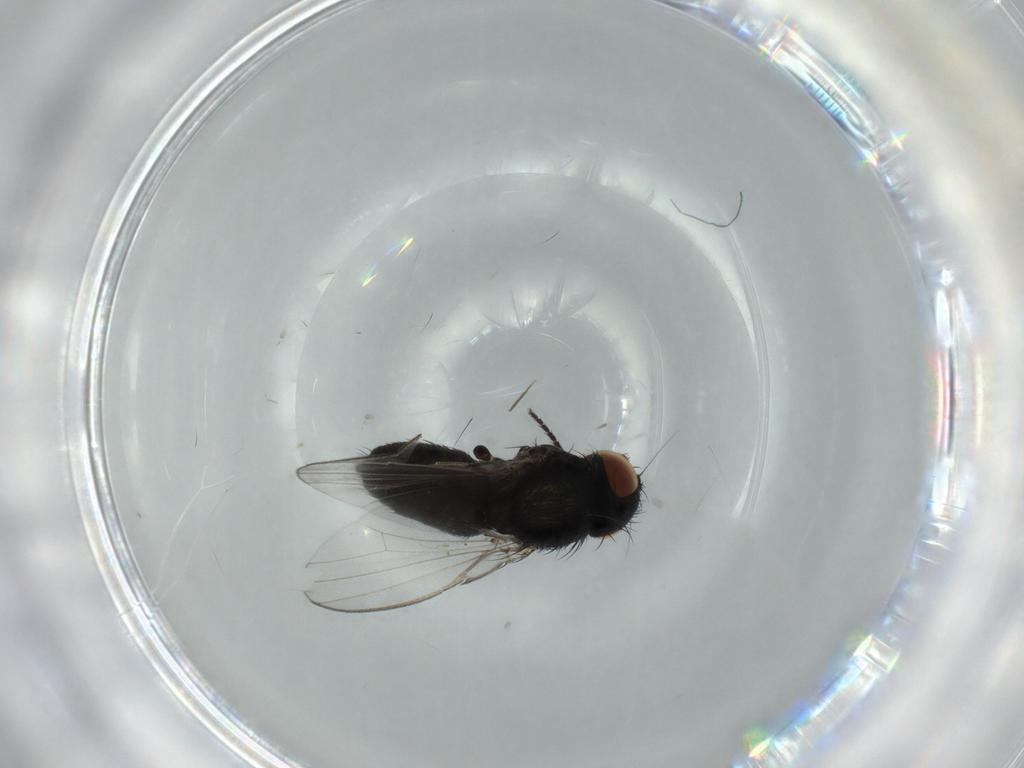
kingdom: Animalia
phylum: Arthropoda
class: Insecta
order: Diptera
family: Milichiidae
